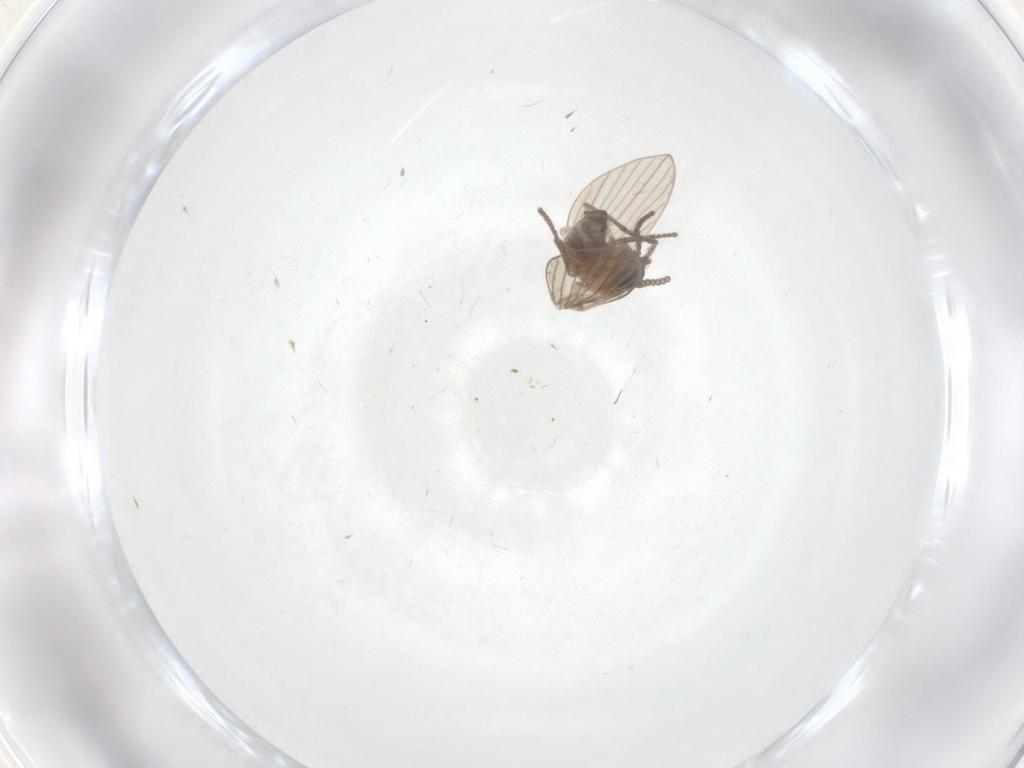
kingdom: Animalia
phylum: Arthropoda
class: Insecta
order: Diptera
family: Psychodidae
